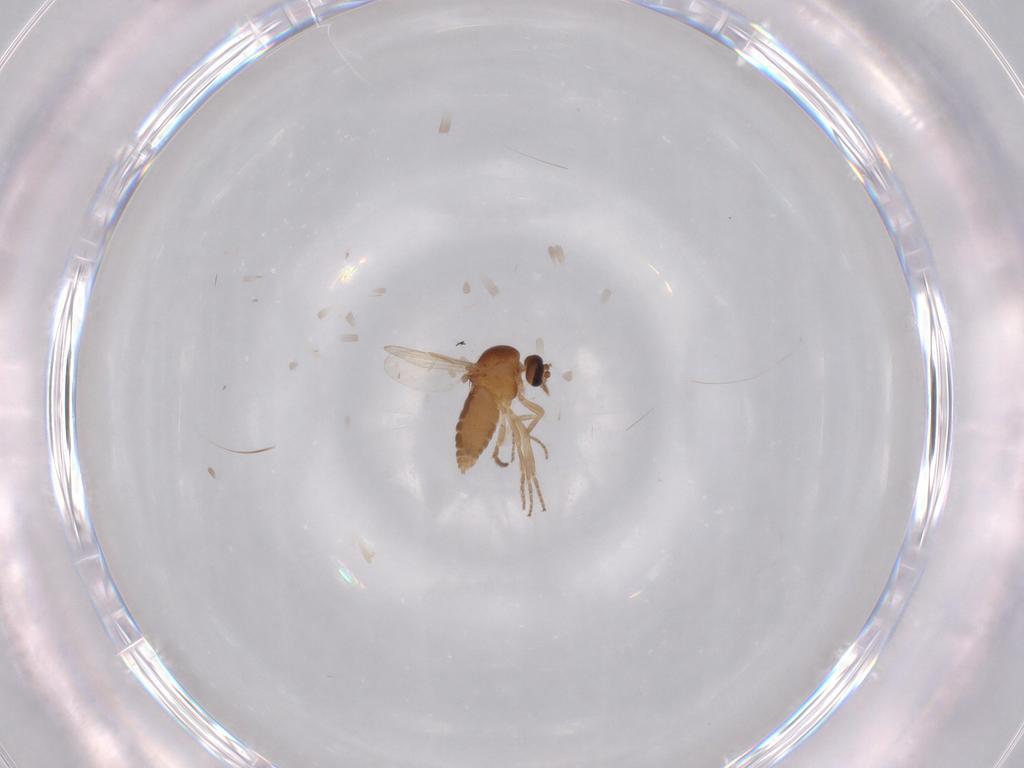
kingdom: Animalia
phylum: Arthropoda
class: Insecta
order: Diptera
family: Ceratopogonidae
